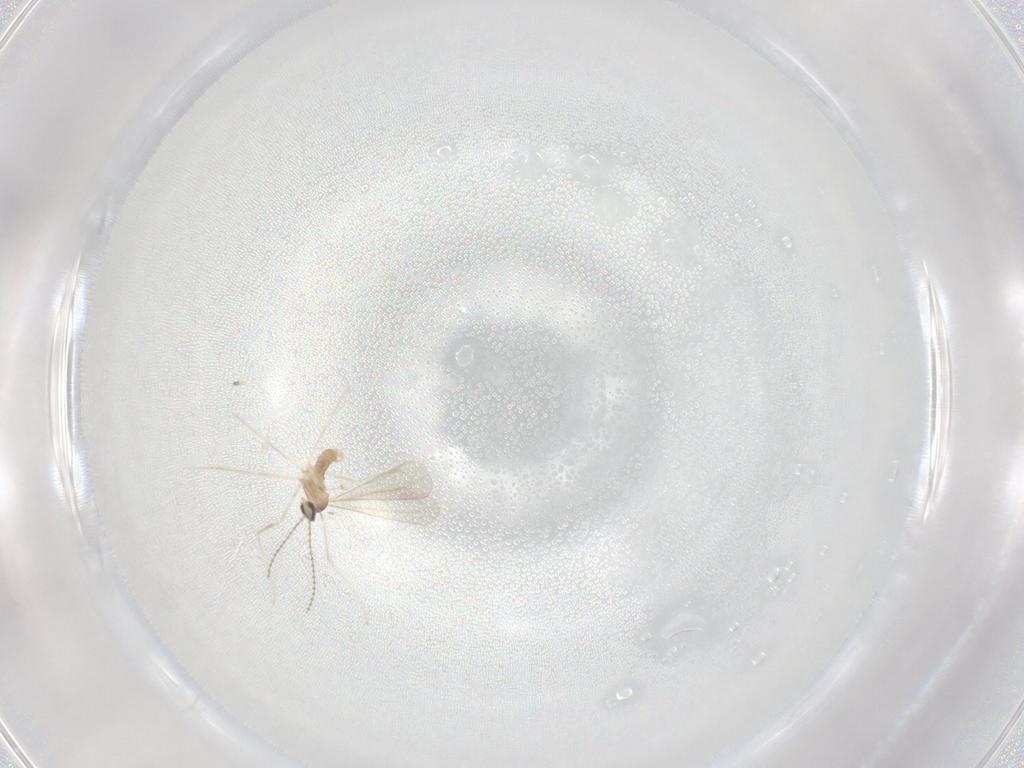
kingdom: Animalia
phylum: Arthropoda
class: Insecta
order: Diptera
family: Cecidomyiidae
